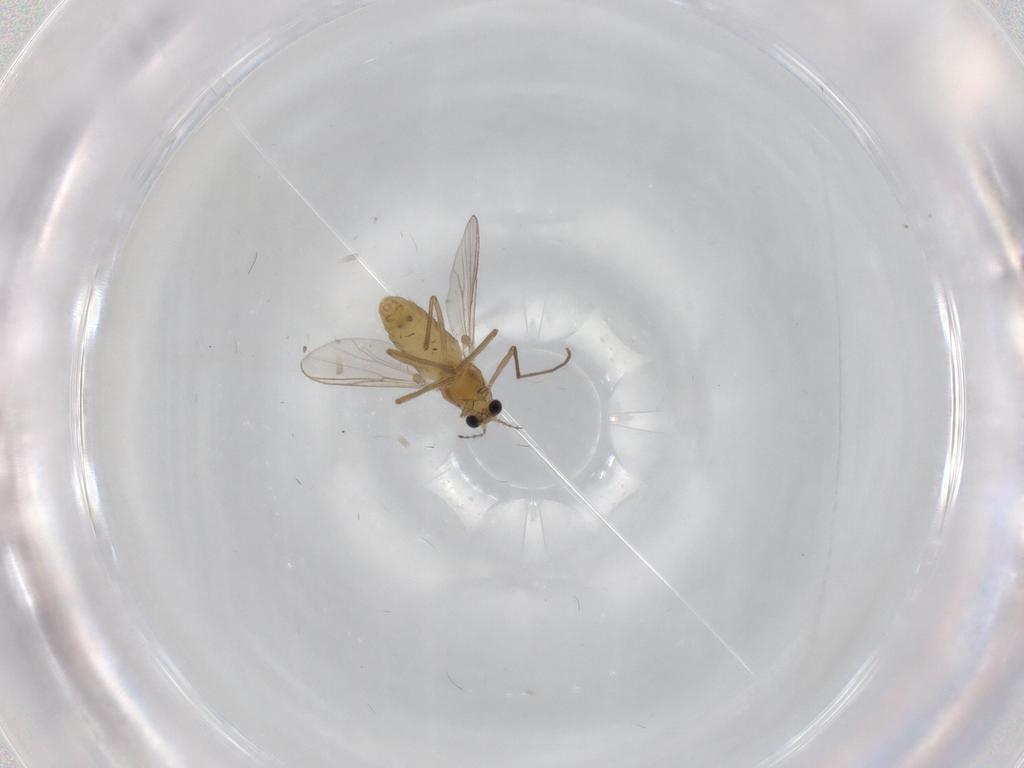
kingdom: Animalia
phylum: Arthropoda
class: Insecta
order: Diptera
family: Chironomidae
